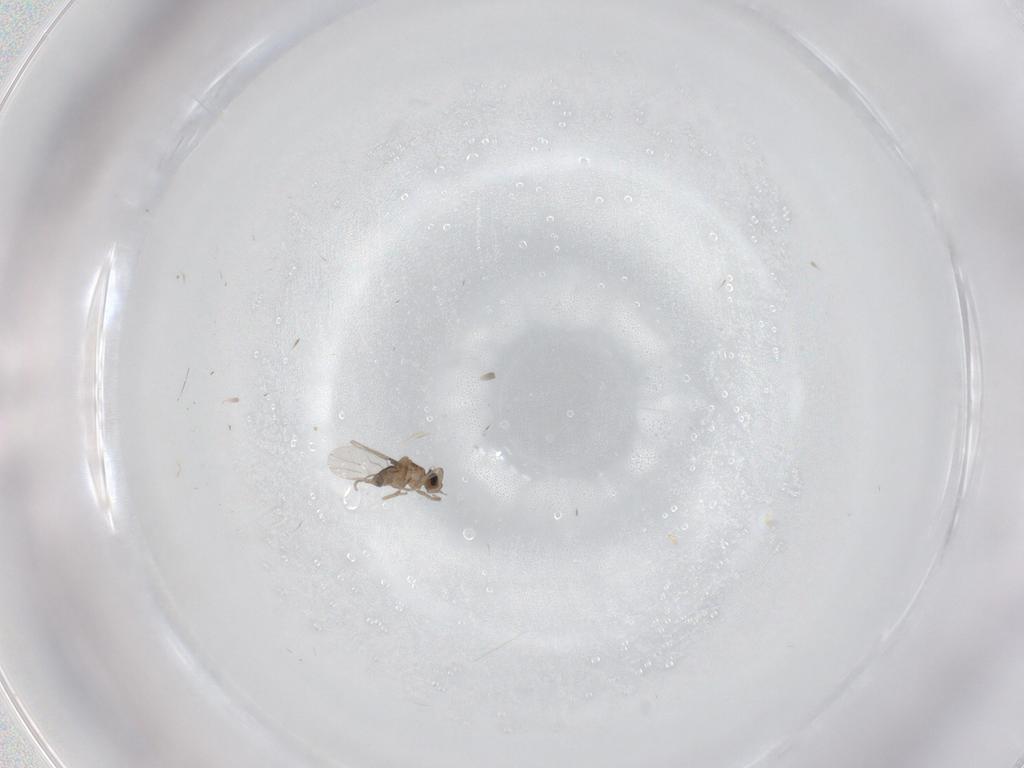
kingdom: Animalia
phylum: Arthropoda
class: Insecta
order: Diptera
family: Phoridae
